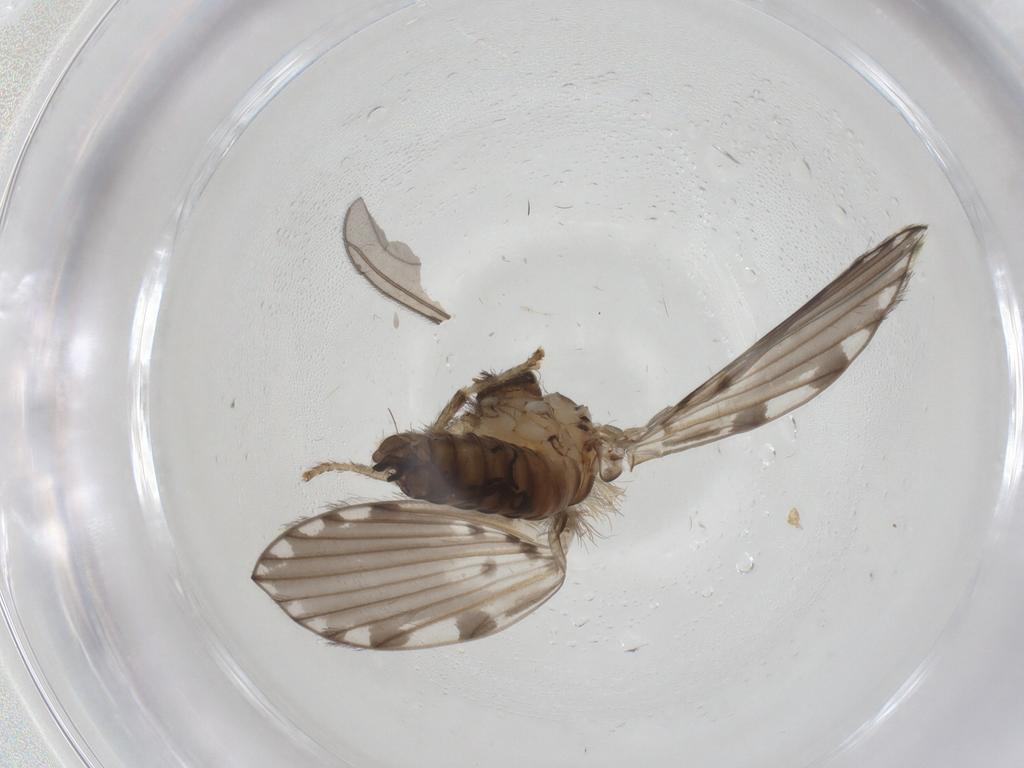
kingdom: Animalia
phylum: Arthropoda
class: Insecta
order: Diptera
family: Psychodidae
